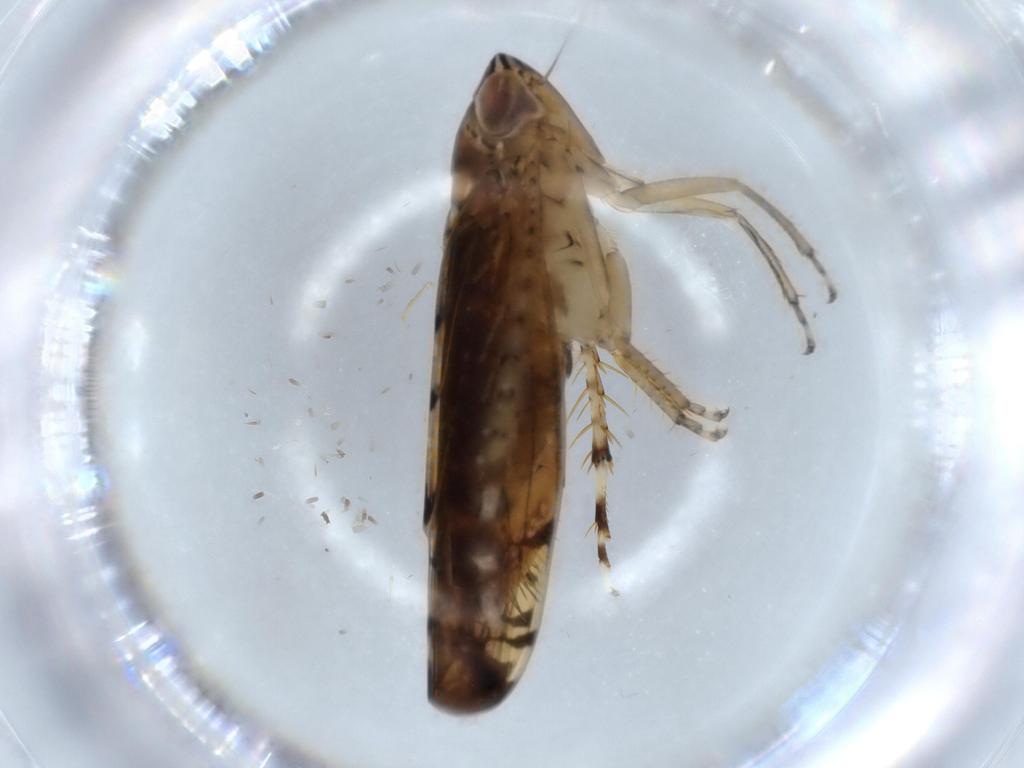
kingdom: Animalia
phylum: Arthropoda
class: Insecta
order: Hemiptera
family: Cicadellidae
